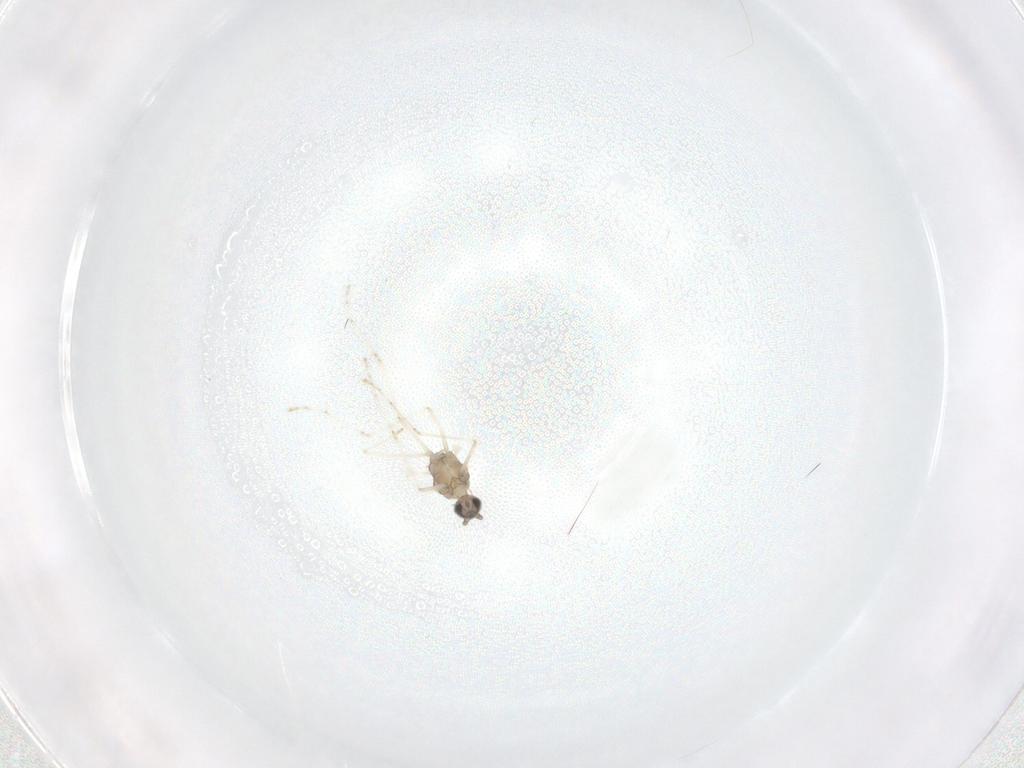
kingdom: Animalia
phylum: Arthropoda
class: Insecta
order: Diptera
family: Cecidomyiidae
